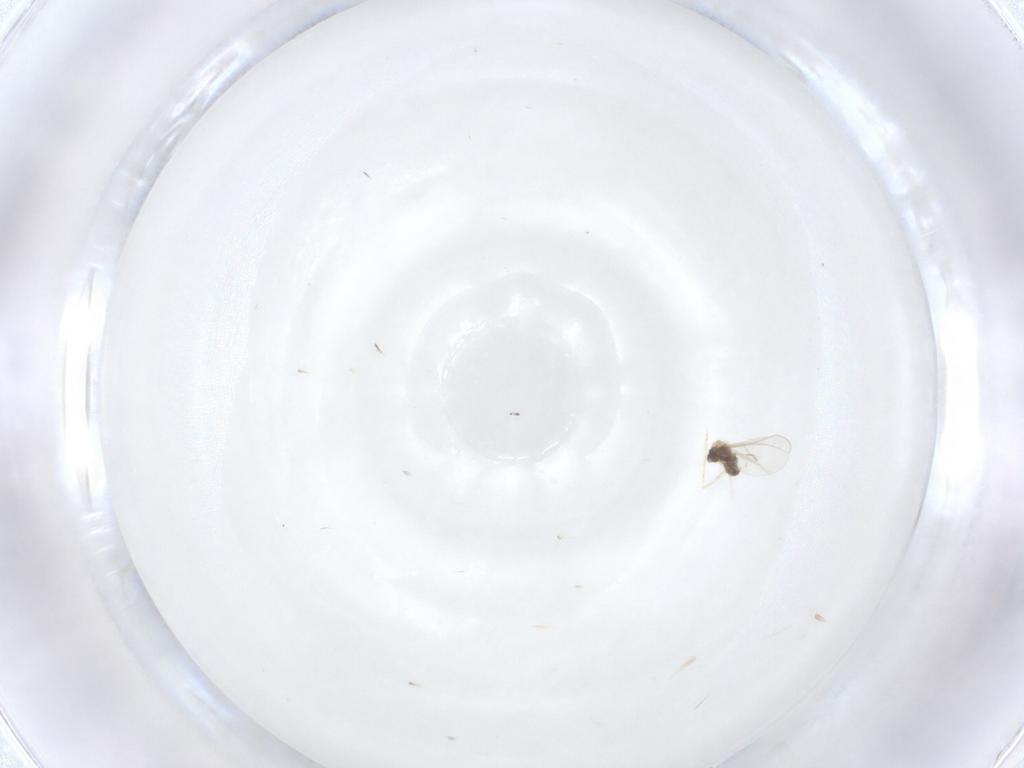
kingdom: Animalia
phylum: Arthropoda
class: Insecta
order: Diptera
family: Cecidomyiidae
